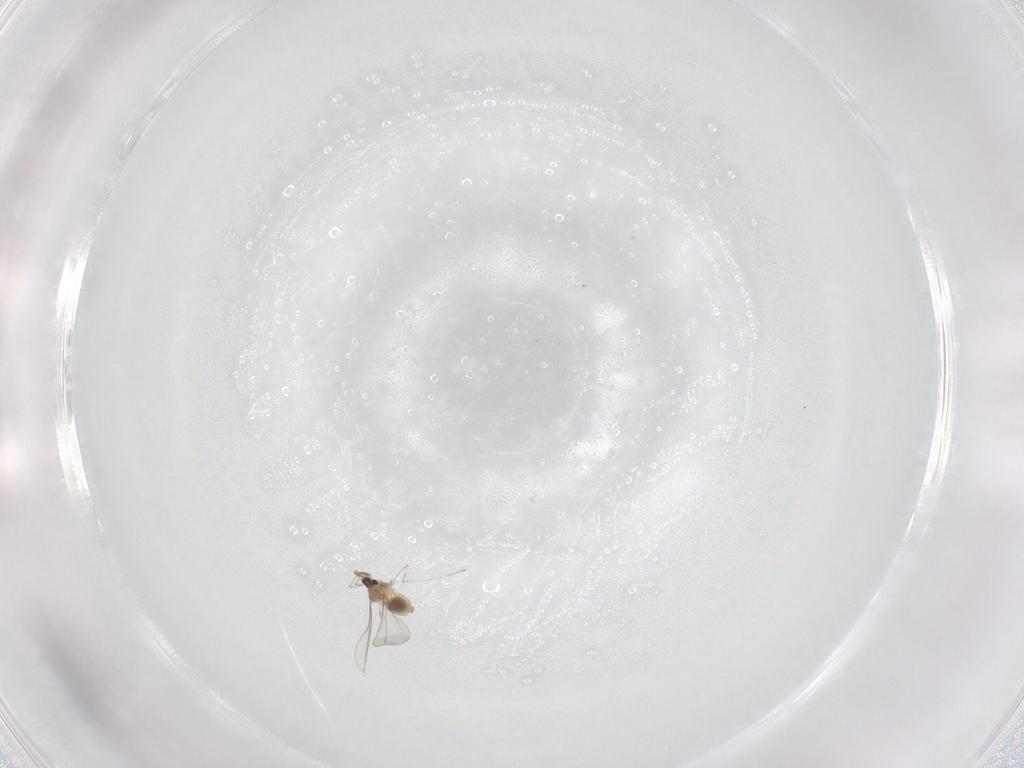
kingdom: Animalia
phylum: Arthropoda
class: Insecta
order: Diptera
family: Cecidomyiidae
